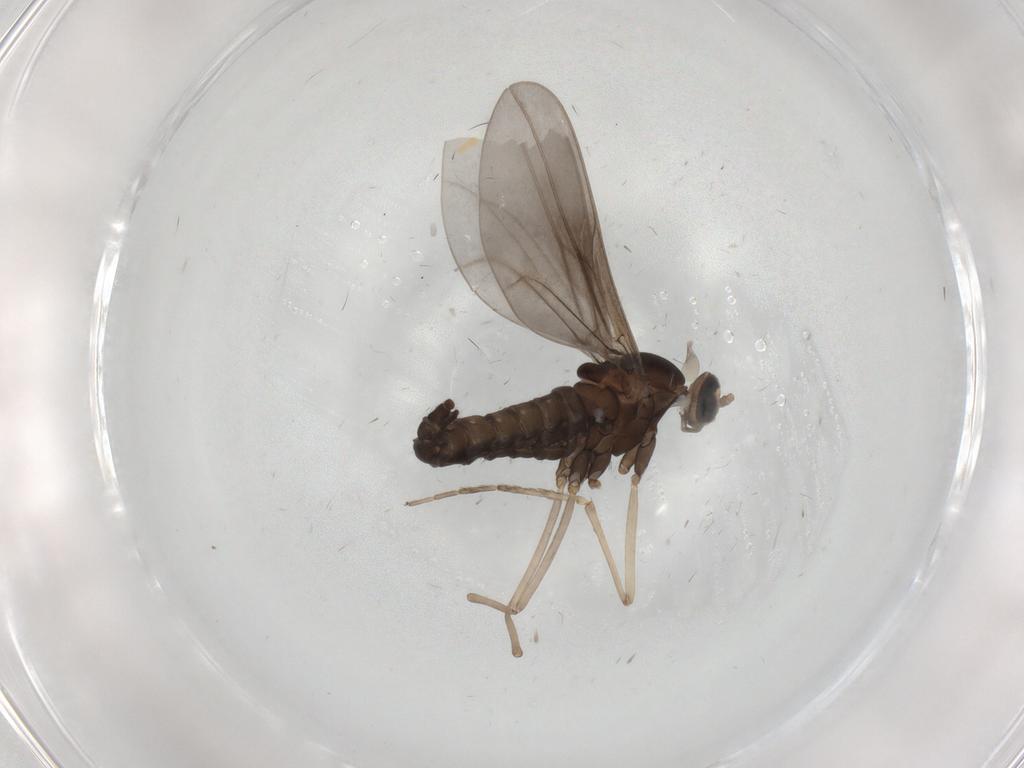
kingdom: Animalia
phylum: Arthropoda
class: Insecta
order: Diptera
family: Cecidomyiidae
